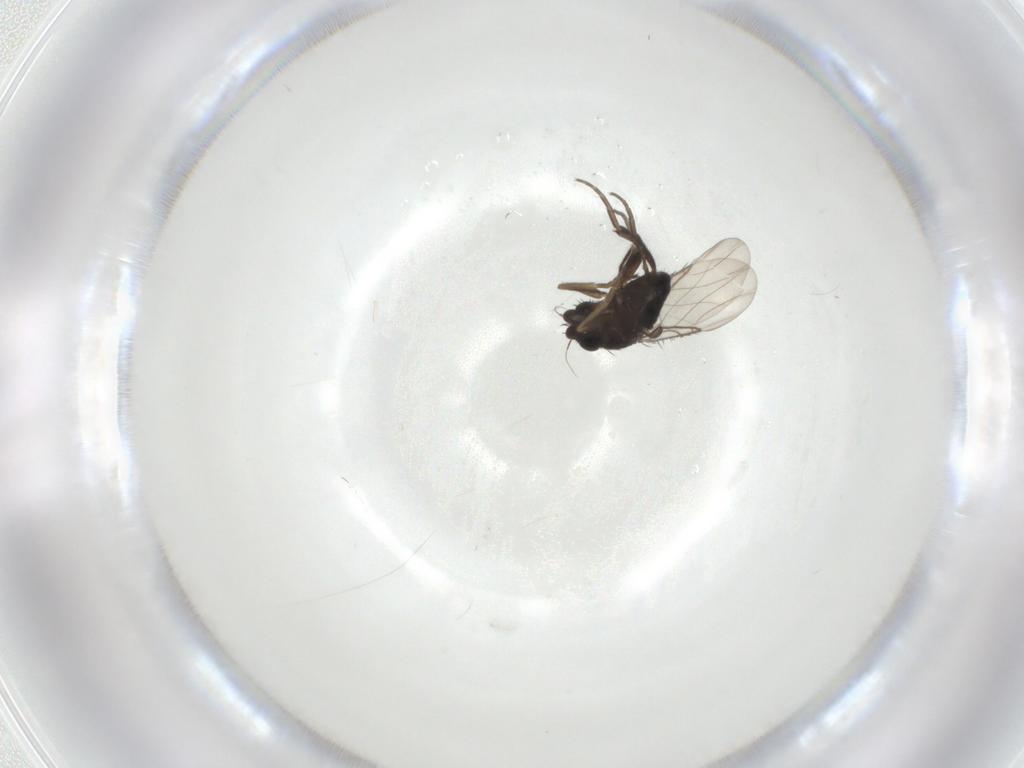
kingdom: Animalia
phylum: Arthropoda
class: Insecta
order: Diptera
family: Phoridae
